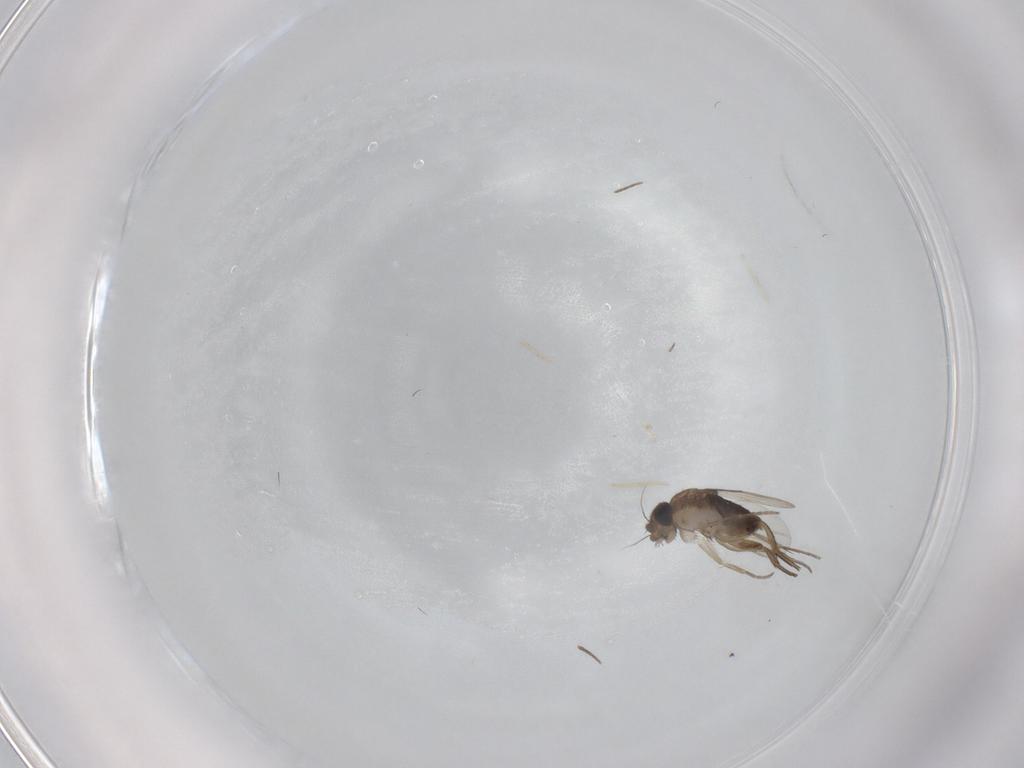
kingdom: Animalia
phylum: Arthropoda
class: Insecta
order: Diptera
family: Phoridae
